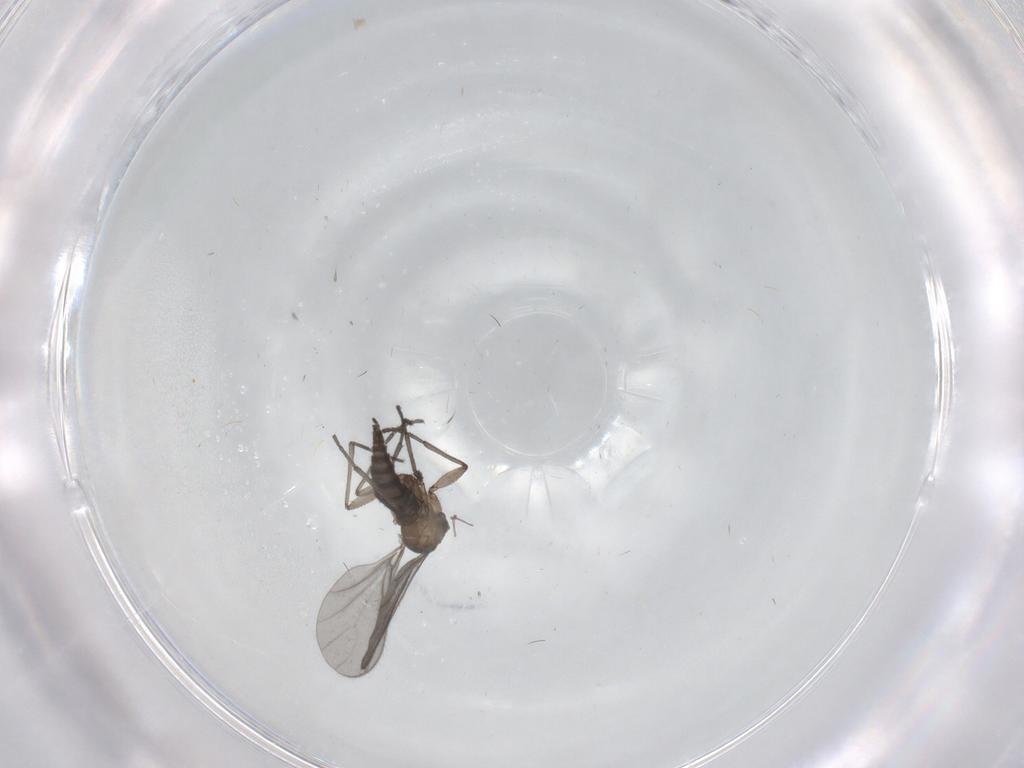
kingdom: Animalia
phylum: Arthropoda
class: Insecta
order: Diptera
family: Sciaridae
